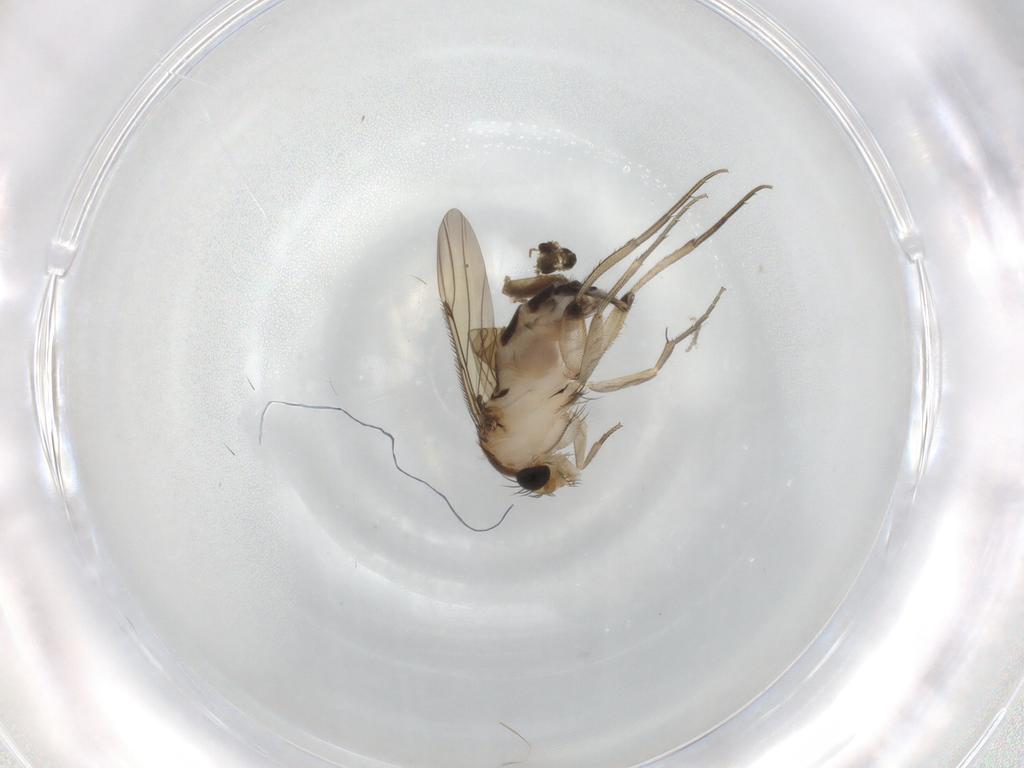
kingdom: Animalia
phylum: Arthropoda
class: Insecta
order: Diptera
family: Phoridae
